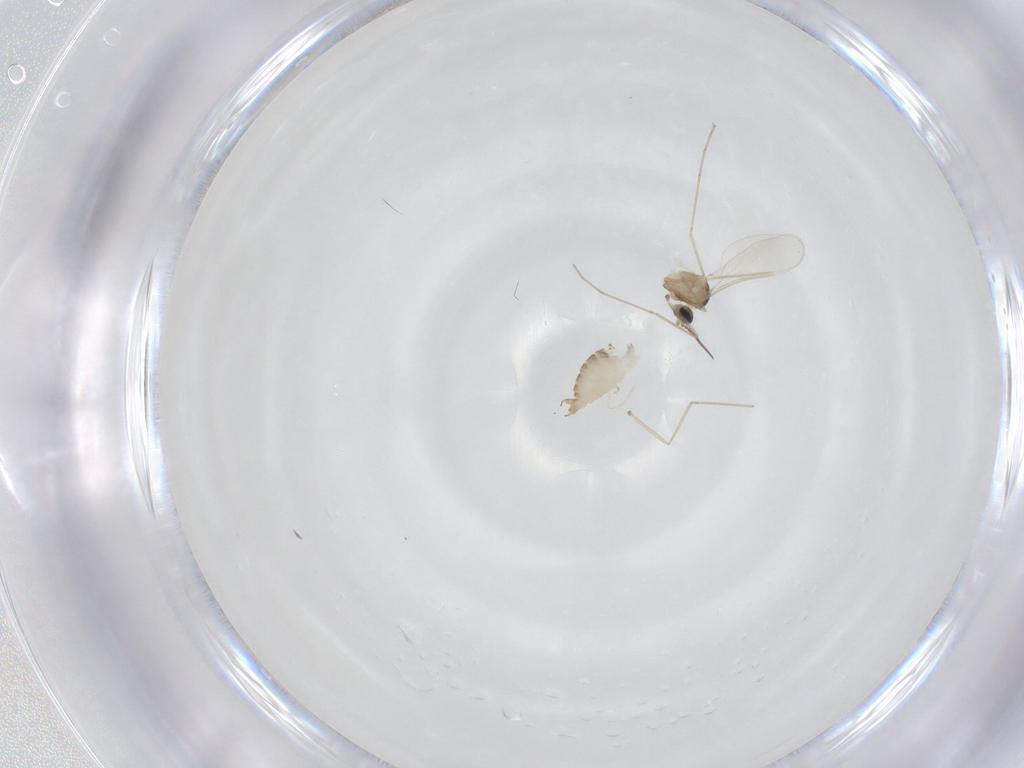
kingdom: Animalia
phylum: Arthropoda
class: Insecta
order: Diptera
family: Cecidomyiidae
